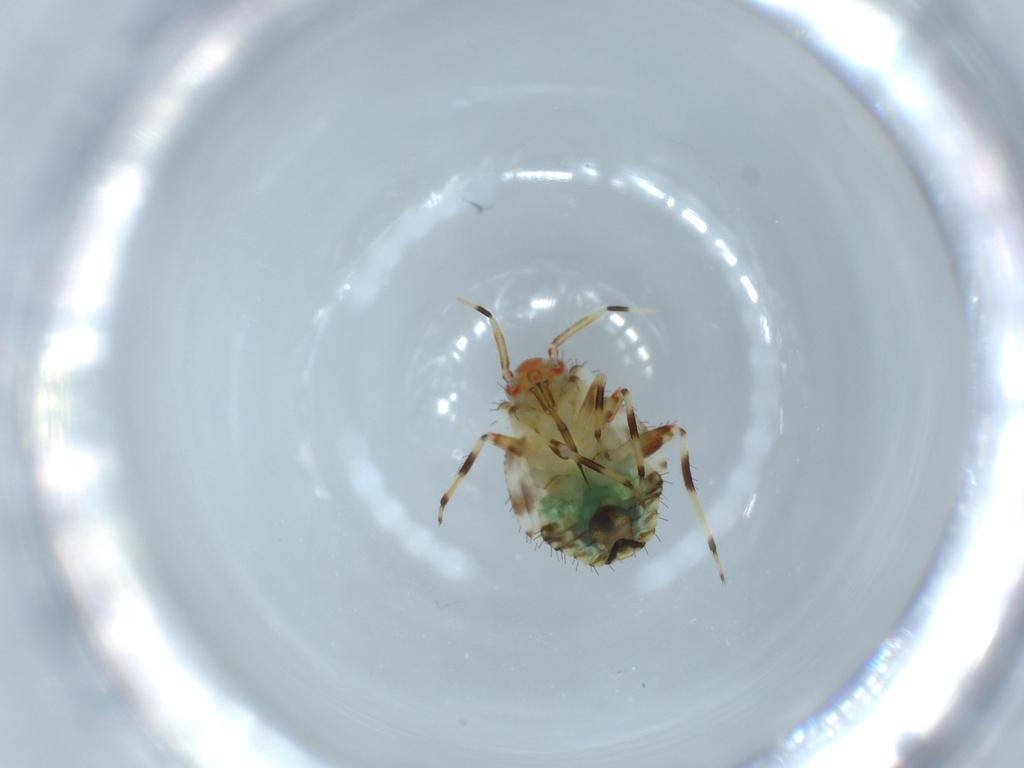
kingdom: Animalia
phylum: Arthropoda
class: Insecta
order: Hemiptera
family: Miridae
